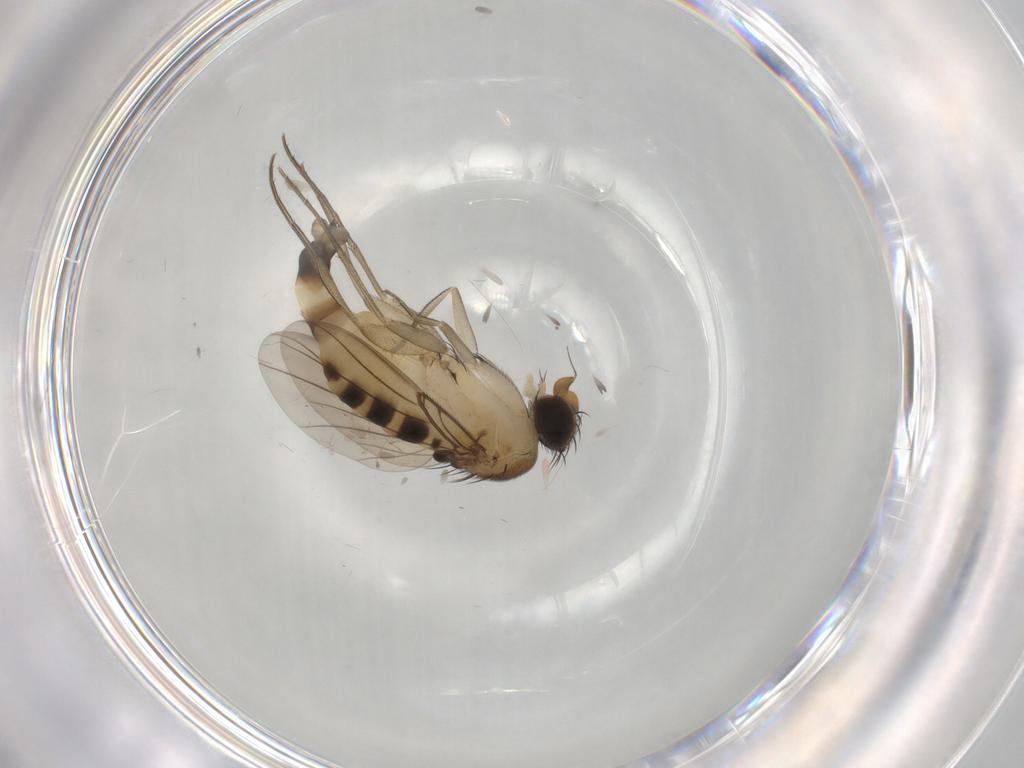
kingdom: Animalia
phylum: Arthropoda
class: Insecta
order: Diptera
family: Phoridae
